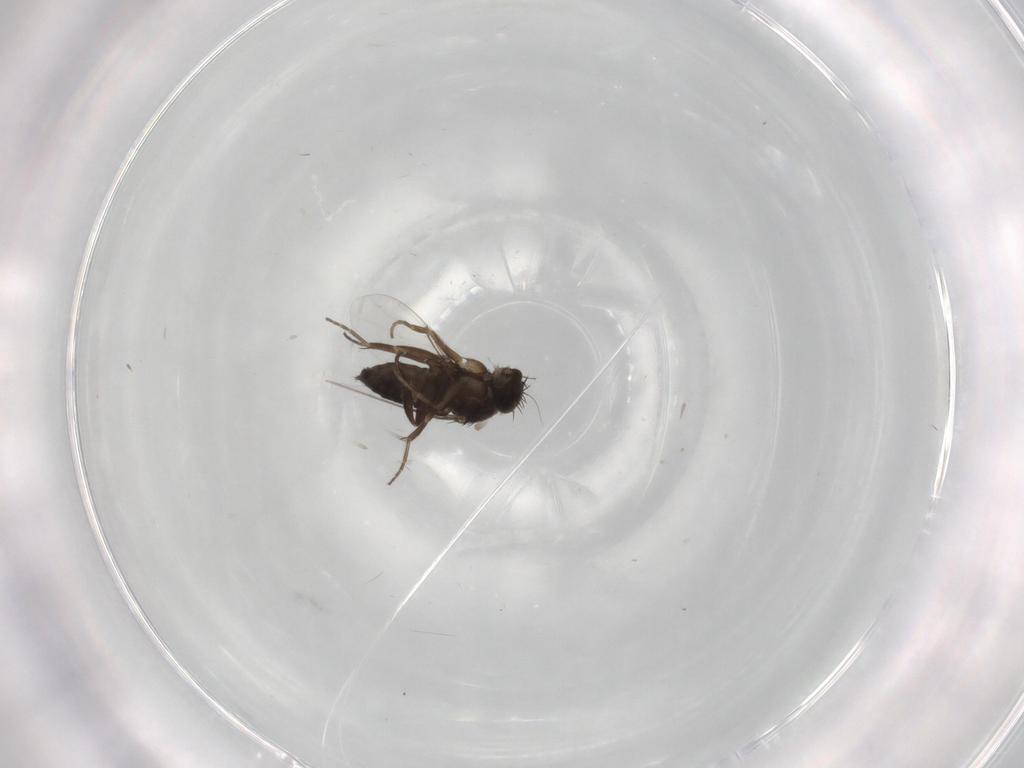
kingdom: Animalia
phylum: Arthropoda
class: Insecta
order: Diptera
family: Phoridae
